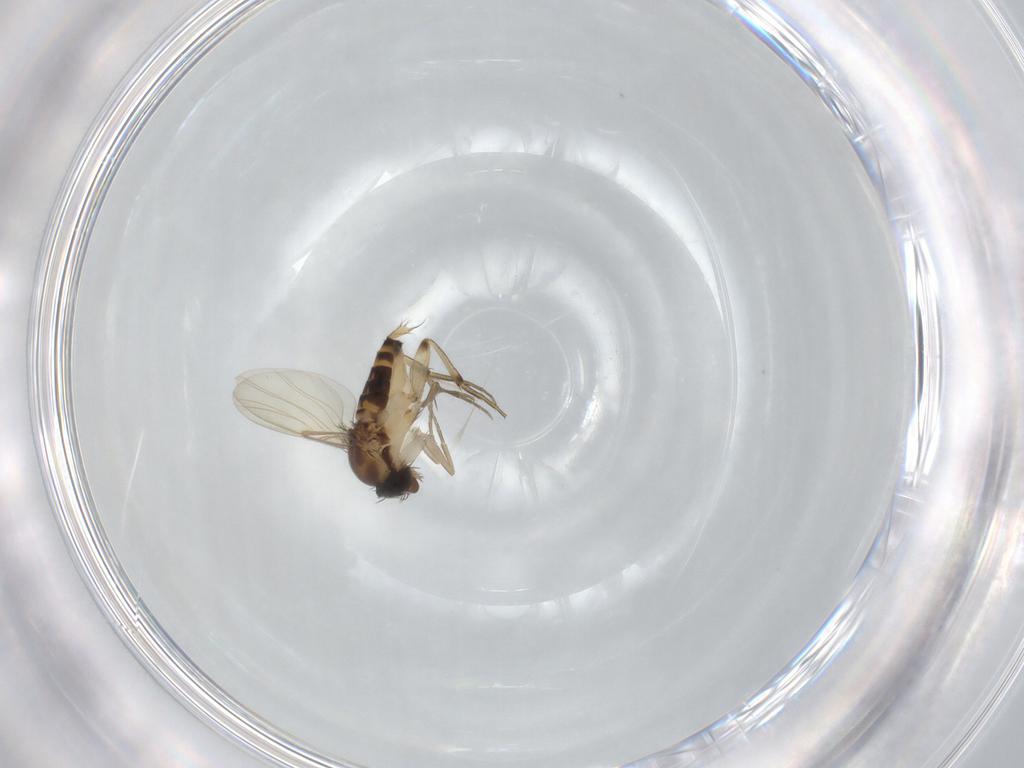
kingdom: Animalia
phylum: Arthropoda
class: Insecta
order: Diptera
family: Phoridae
